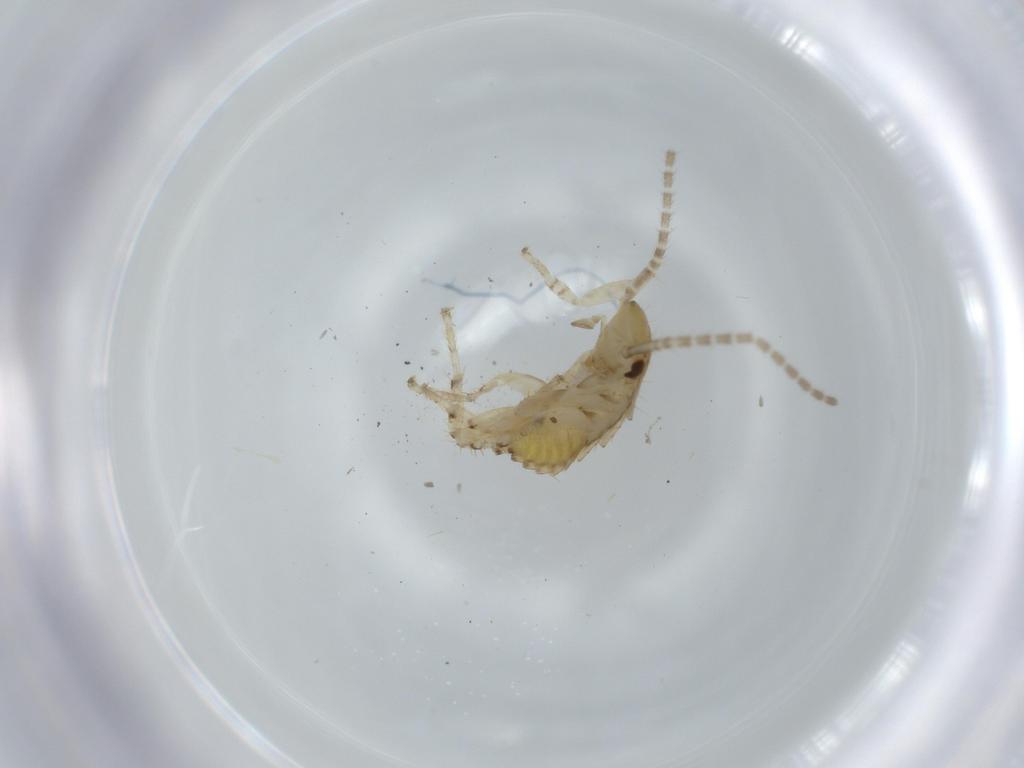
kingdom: Animalia
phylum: Arthropoda
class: Insecta
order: Blattodea
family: Ectobiidae
